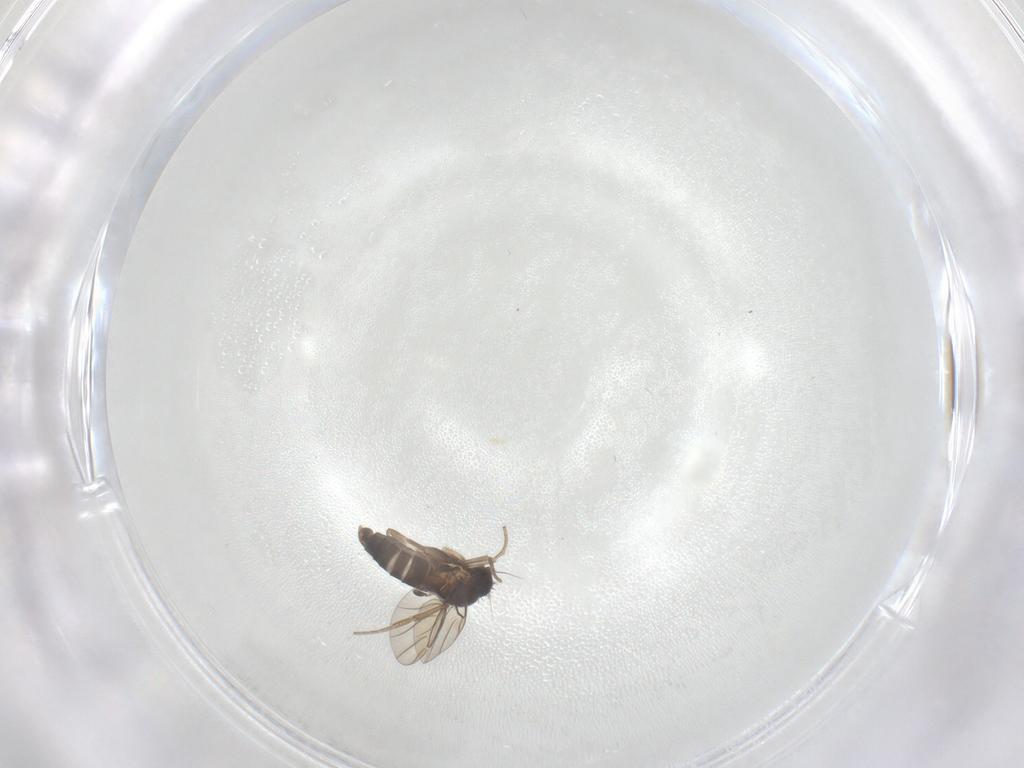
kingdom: Animalia
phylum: Arthropoda
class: Insecta
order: Diptera
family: Phoridae
